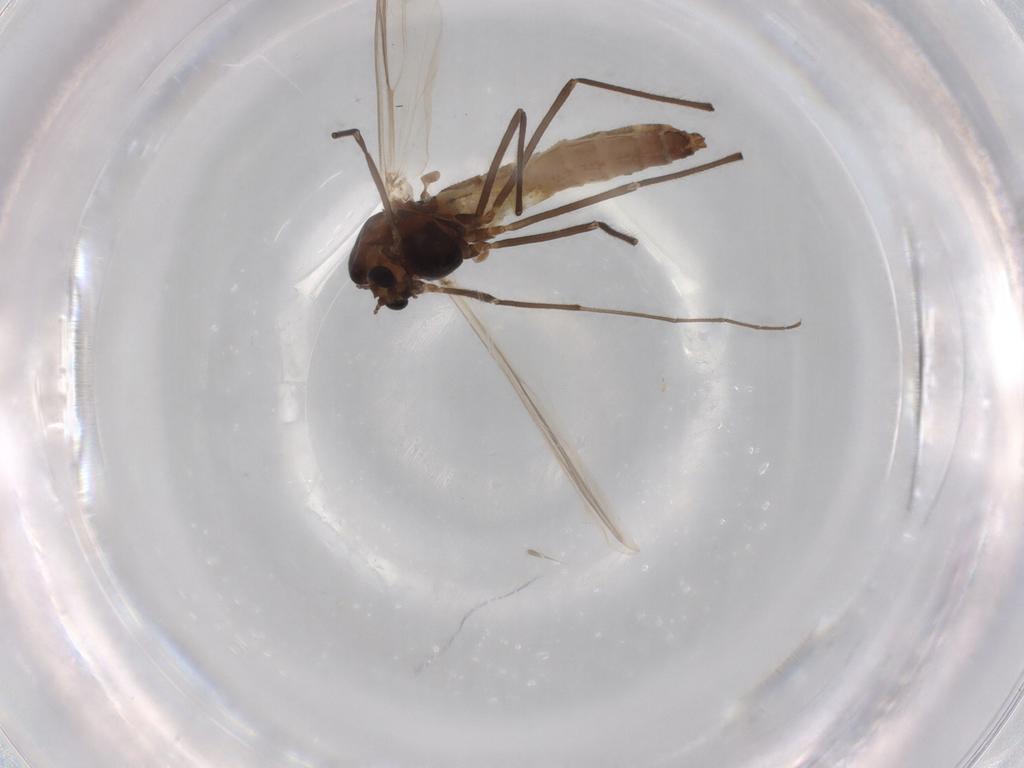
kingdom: Animalia
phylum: Arthropoda
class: Insecta
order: Diptera
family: Chironomidae
